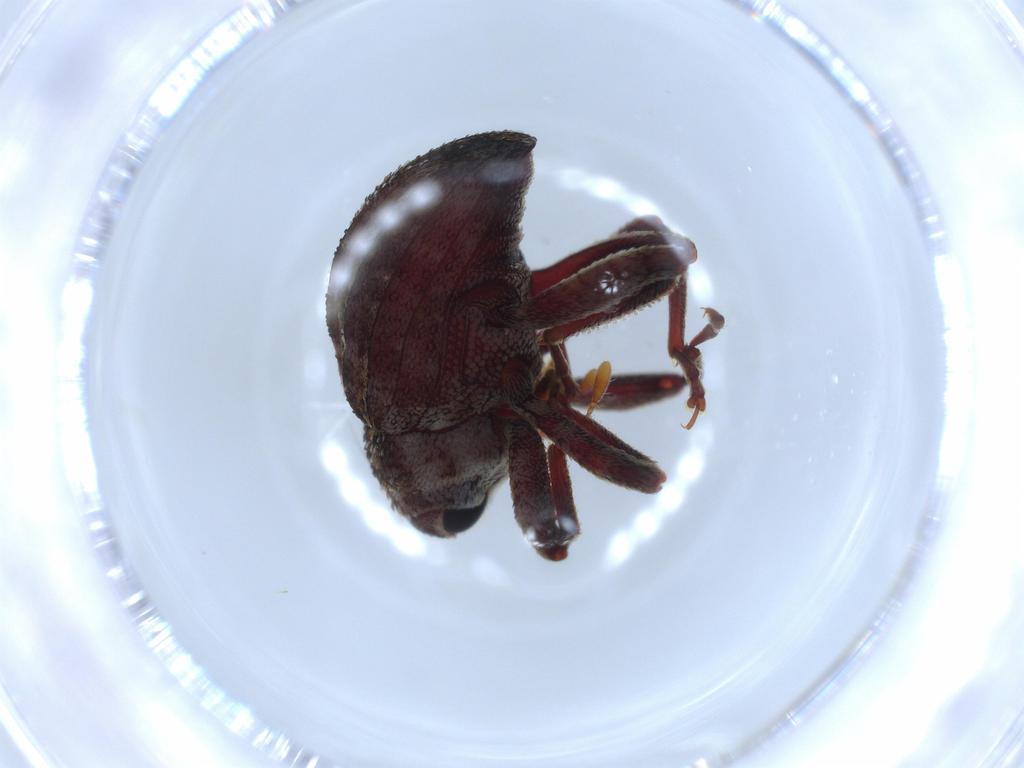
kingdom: Animalia
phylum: Arthropoda
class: Insecta
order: Coleoptera
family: Curculionidae
